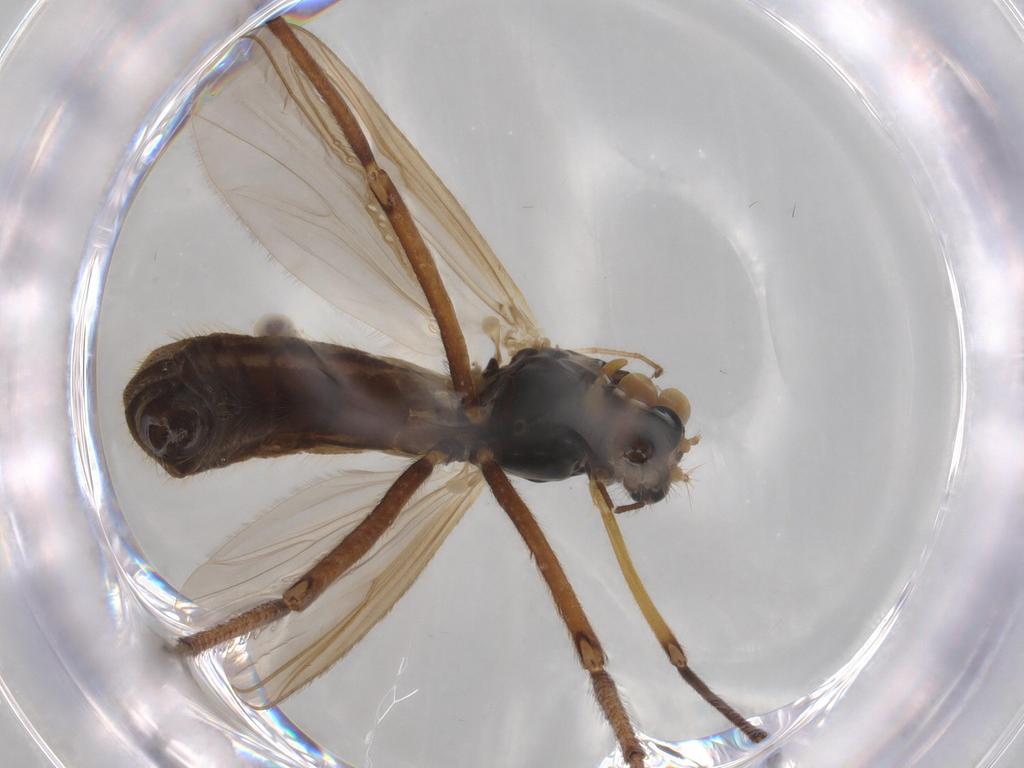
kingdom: Animalia
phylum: Arthropoda
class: Insecta
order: Diptera
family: Chironomidae
